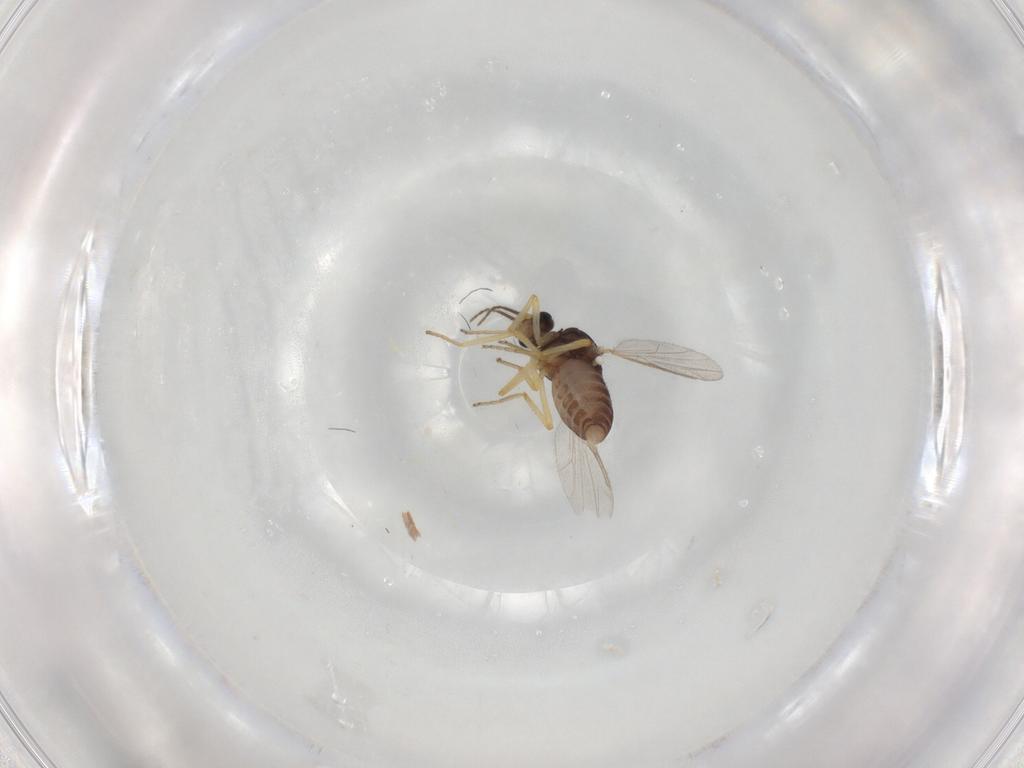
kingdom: Animalia
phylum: Arthropoda
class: Insecta
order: Diptera
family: Ceratopogonidae
